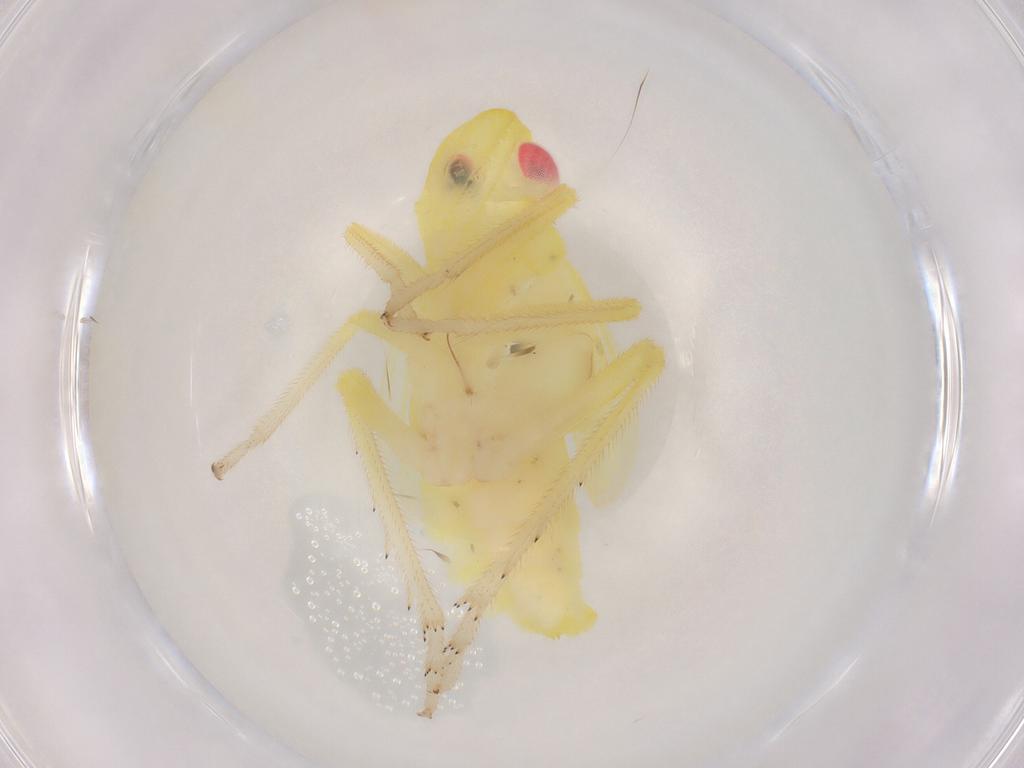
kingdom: Animalia
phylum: Arthropoda
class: Insecta
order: Hemiptera
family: Fulgoroidea_incertae_sedis
